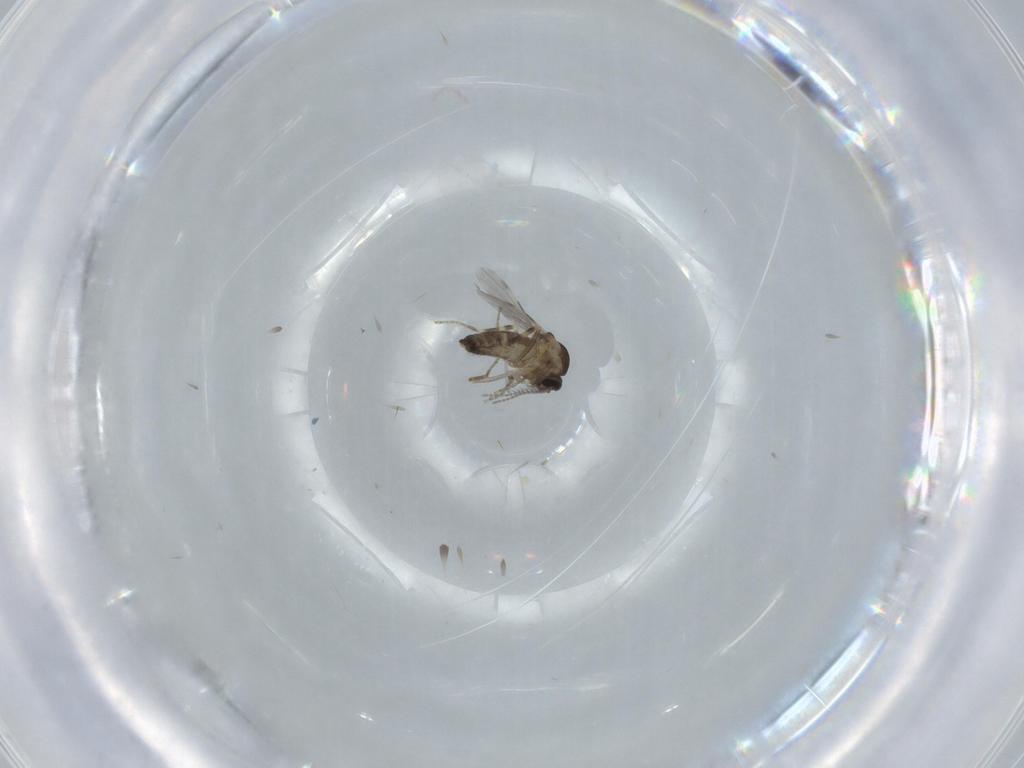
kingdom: Animalia
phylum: Arthropoda
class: Insecta
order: Diptera
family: Ceratopogonidae
